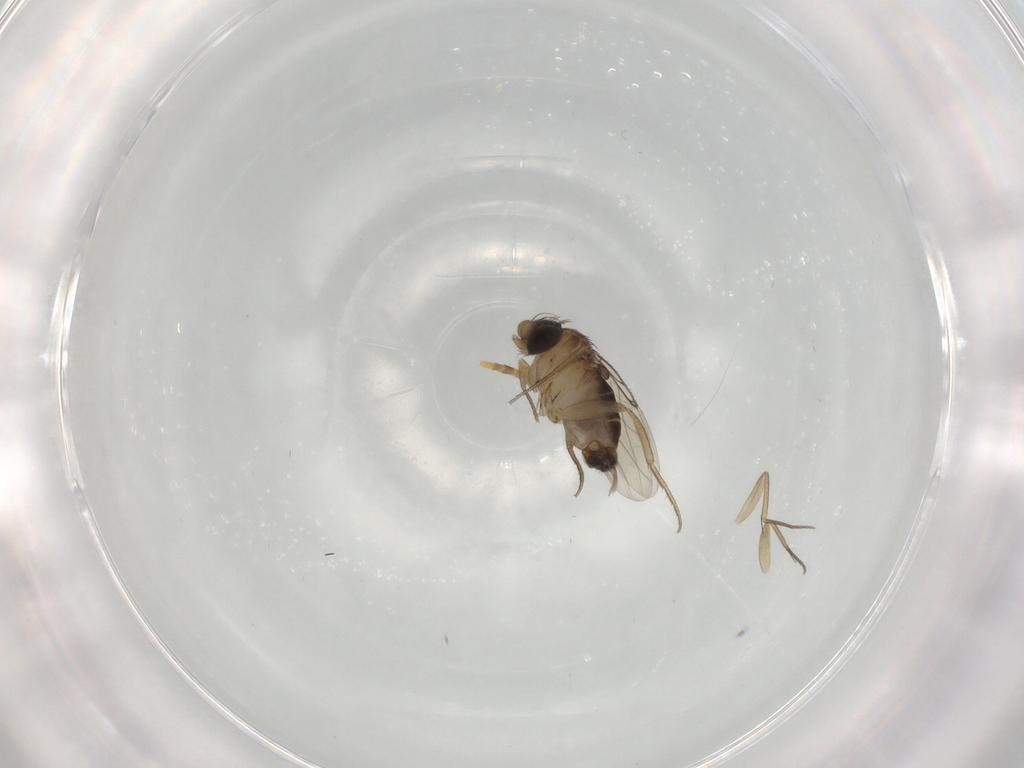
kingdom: Animalia
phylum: Arthropoda
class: Insecta
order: Diptera
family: Phoridae
